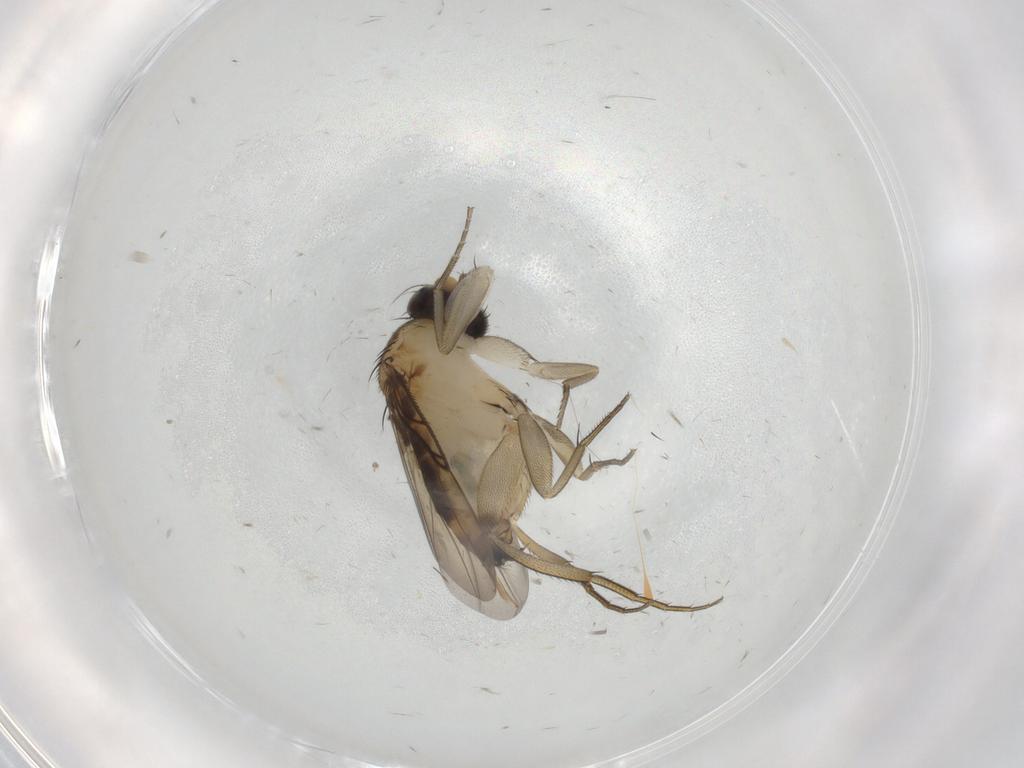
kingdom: Animalia
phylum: Arthropoda
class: Insecta
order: Diptera
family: Phoridae
